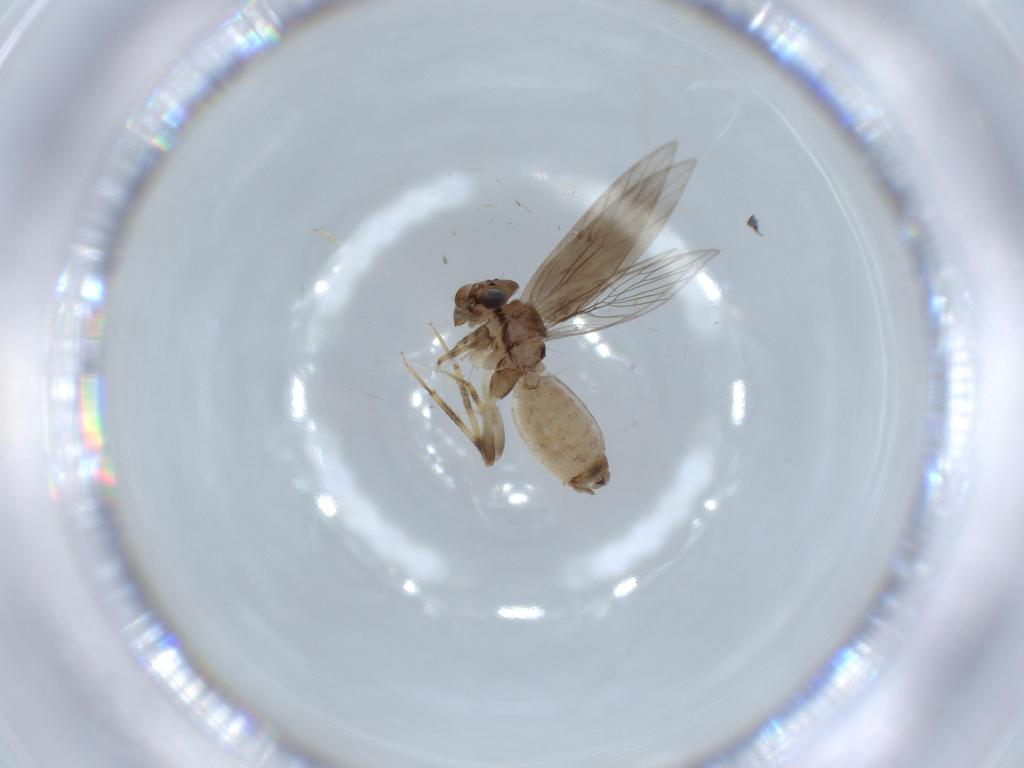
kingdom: Animalia
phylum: Arthropoda
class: Insecta
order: Psocodea
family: Lepidopsocidae
